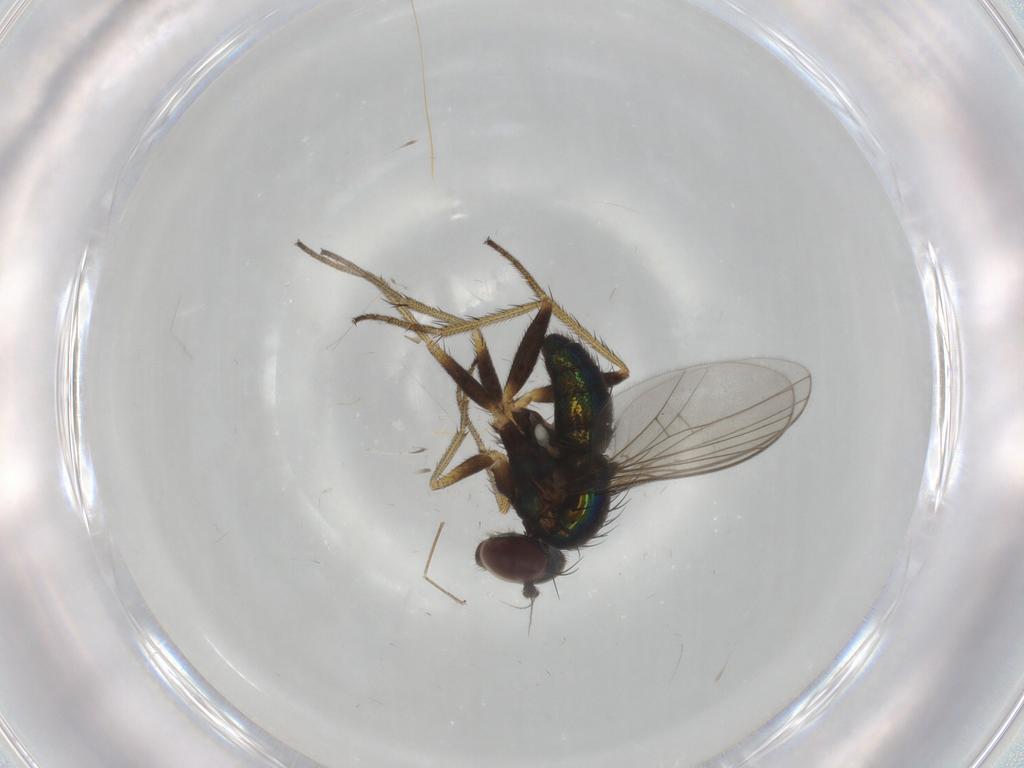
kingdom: Animalia
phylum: Arthropoda
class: Insecta
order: Diptera
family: Dolichopodidae
